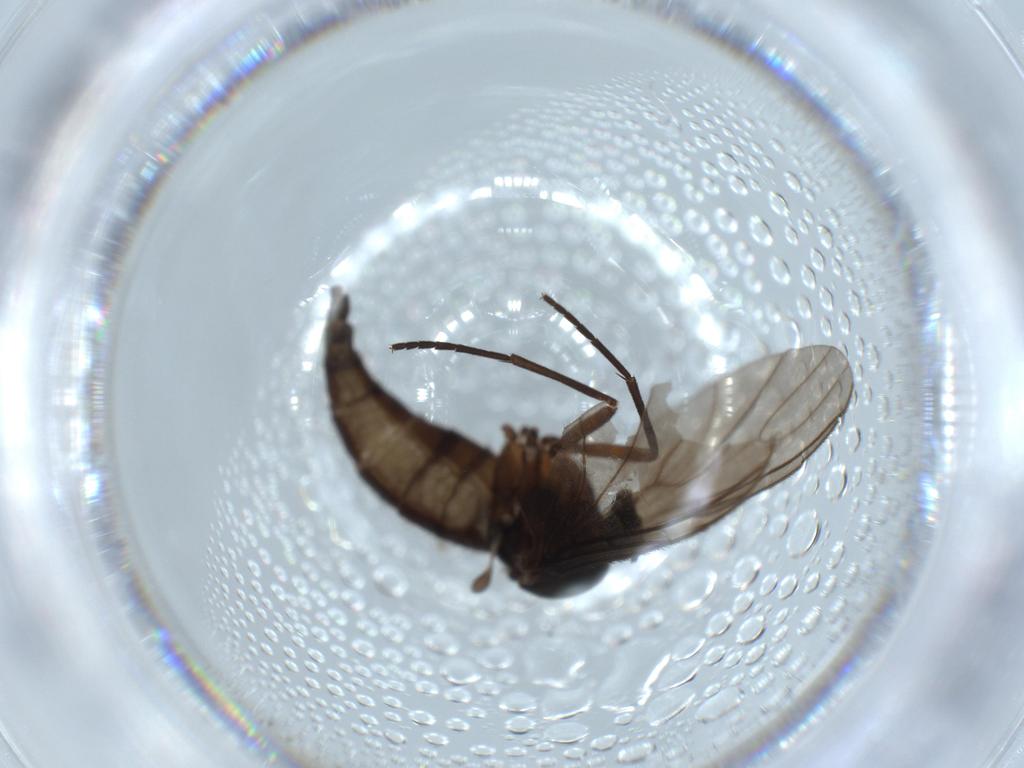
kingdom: Animalia
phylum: Arthropoda
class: Insecta
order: Diptera
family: Sciaridae
